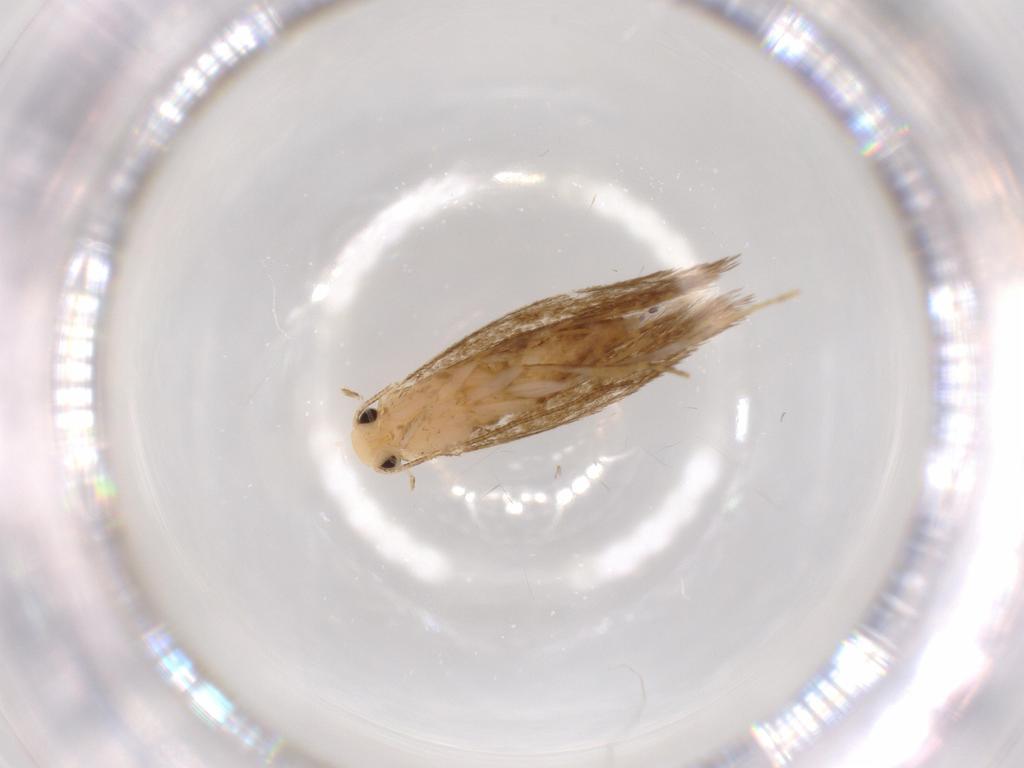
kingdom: Animalia
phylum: Arthropoda
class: Insecta
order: Lepidoptera
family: Tineidae
